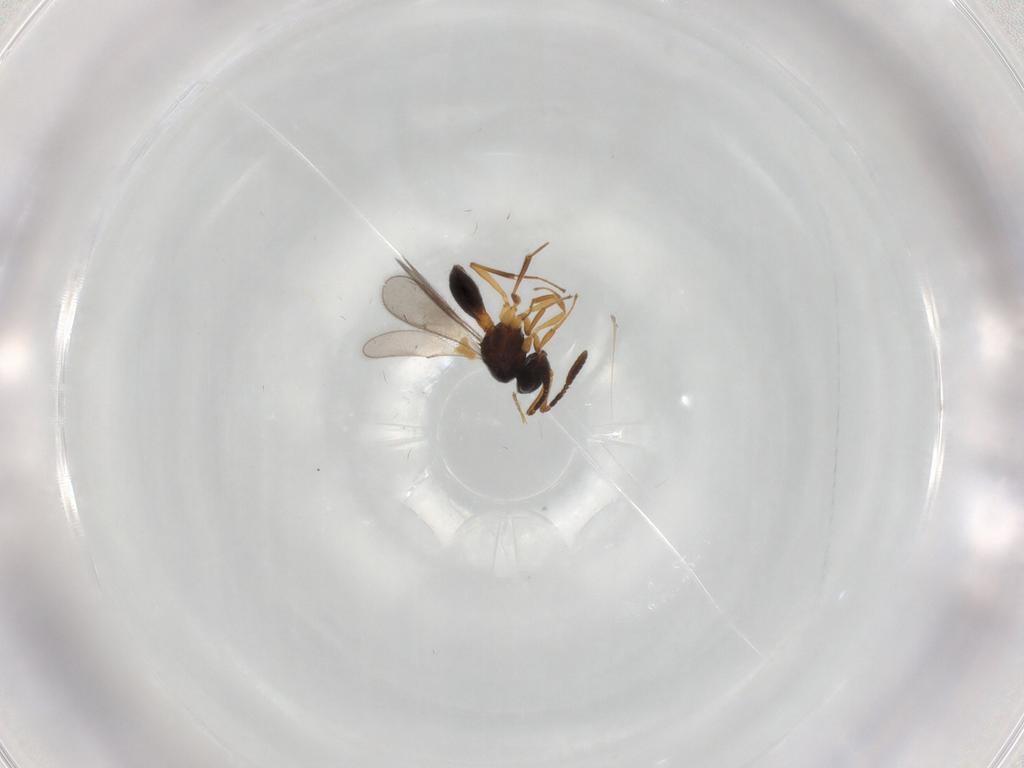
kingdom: Animalia
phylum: Arthropoda
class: Insecta
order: Hymenoptera
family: Scelionidae
